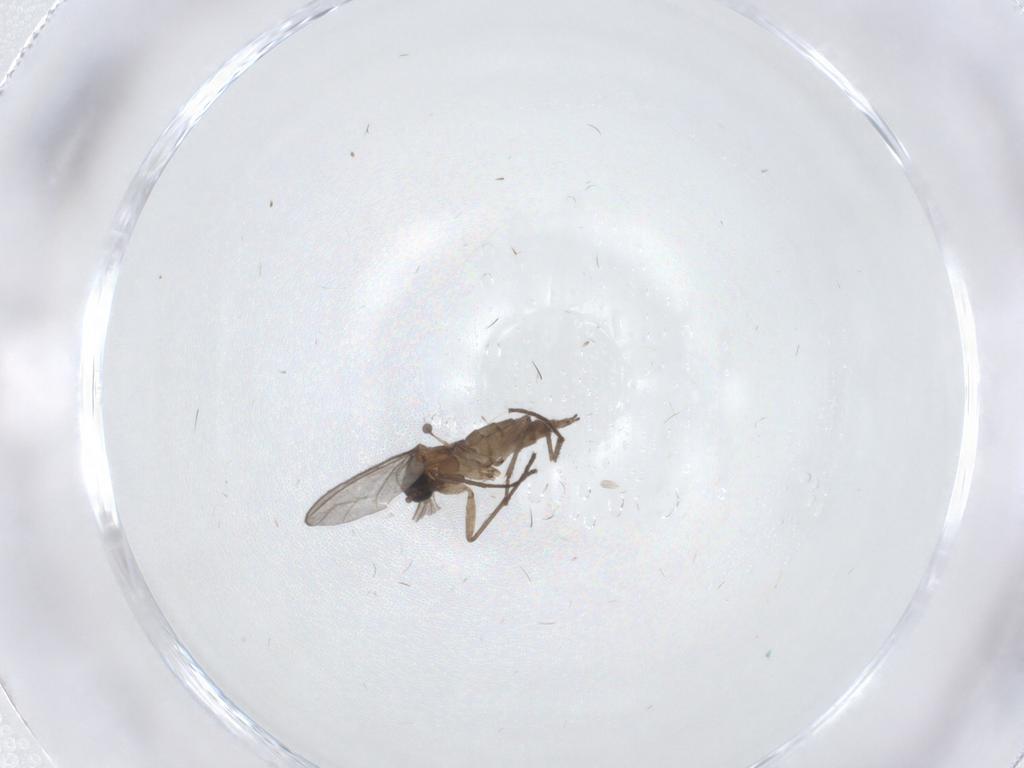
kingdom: Animalia
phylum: Arthropoda
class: Insecta
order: Diptera
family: Sciaridae
